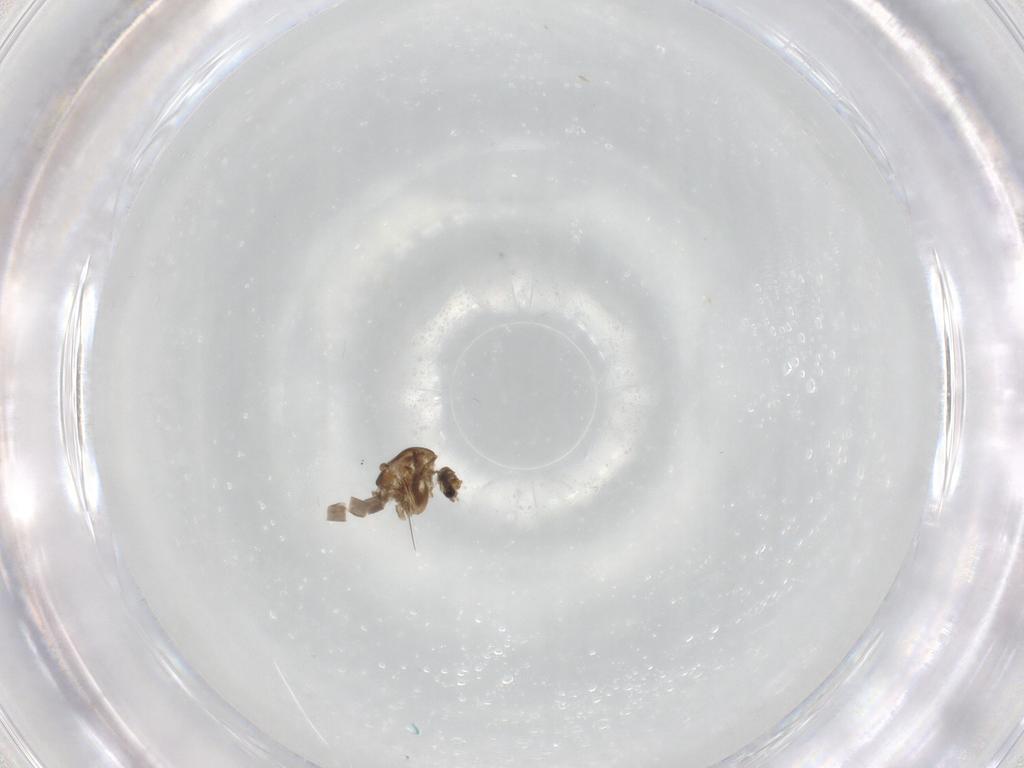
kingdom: Animalia
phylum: Arthropoda
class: Insecta
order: Diptera
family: Cecidomyiidae
